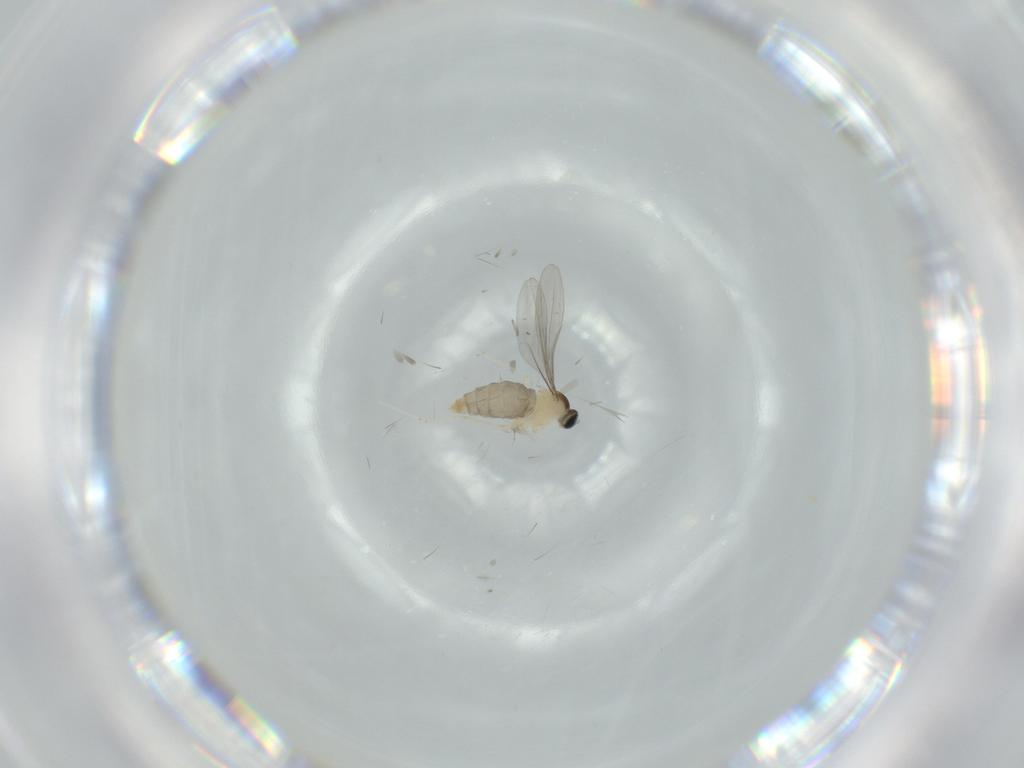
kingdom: Animalia
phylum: Arthropoda
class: Insecta
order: Diptera
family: Tabanidae
